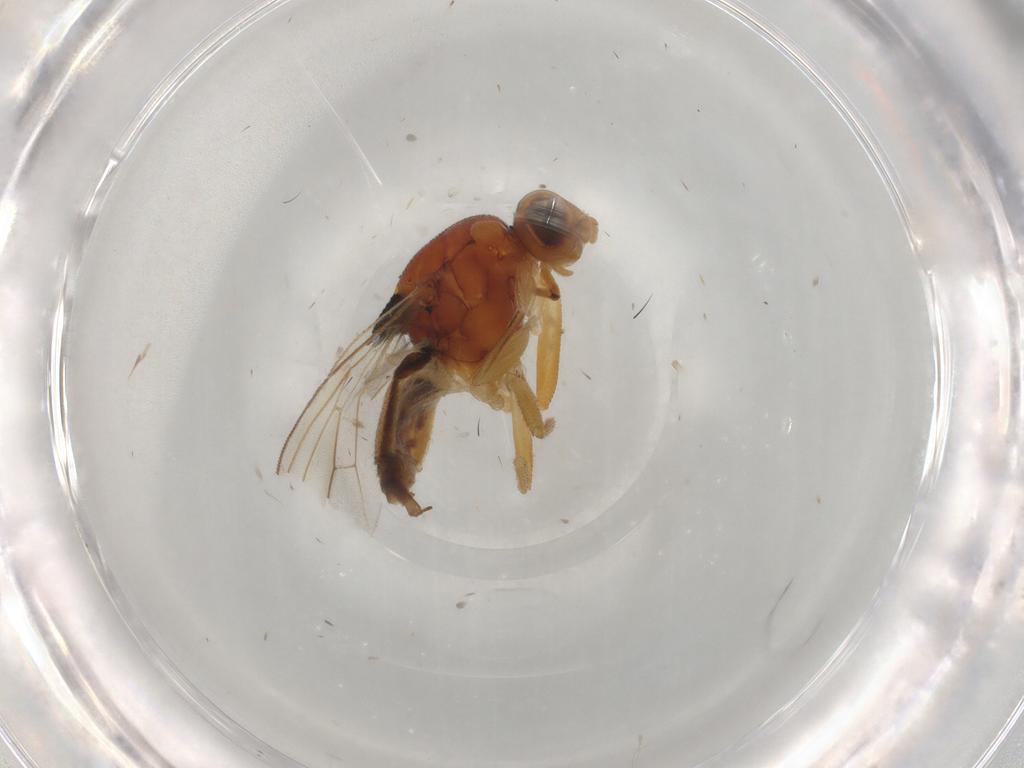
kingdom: Animalia
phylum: Arthropoda
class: Insecta
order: Diptera
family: Chloropidae
